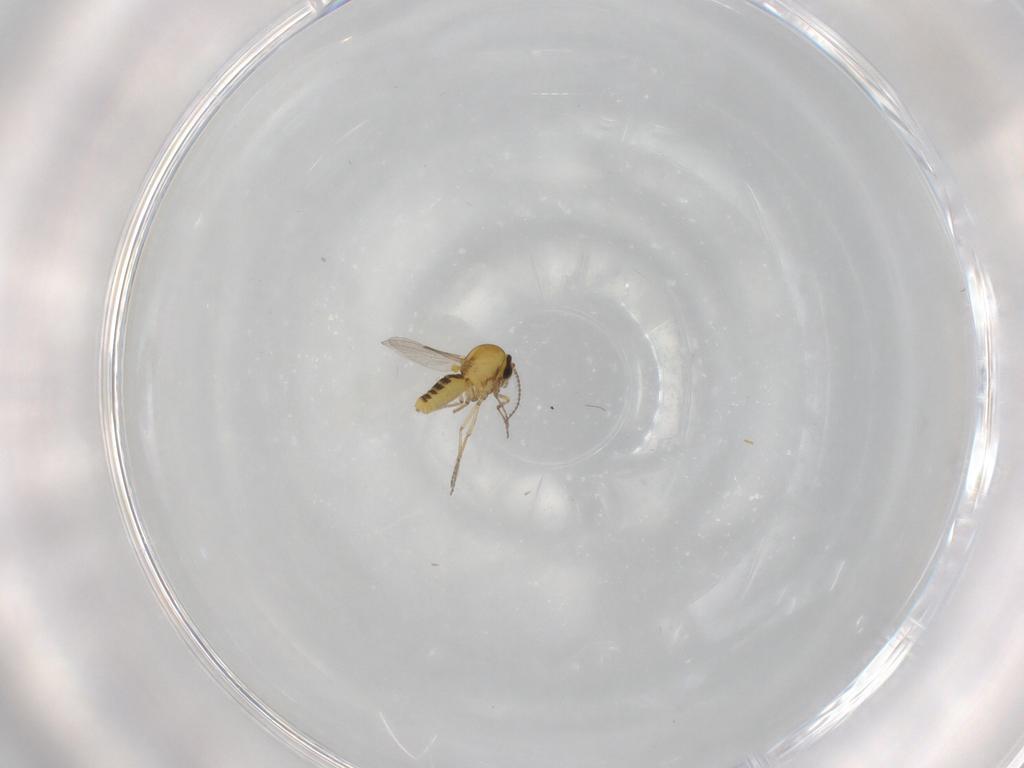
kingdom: Animalia
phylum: Arthropoda
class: Insecta
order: Diptera
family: Ceratopogonidae
